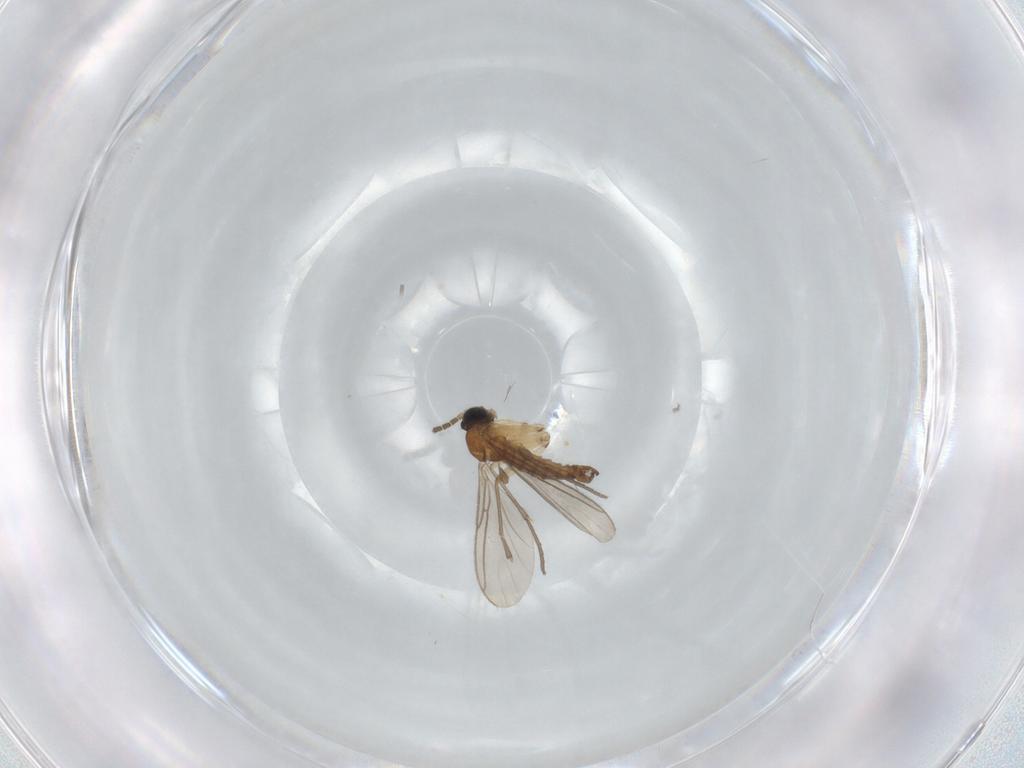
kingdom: Animalia
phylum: Arthropoda
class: Insecta
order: Diptera
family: Sciaridae
